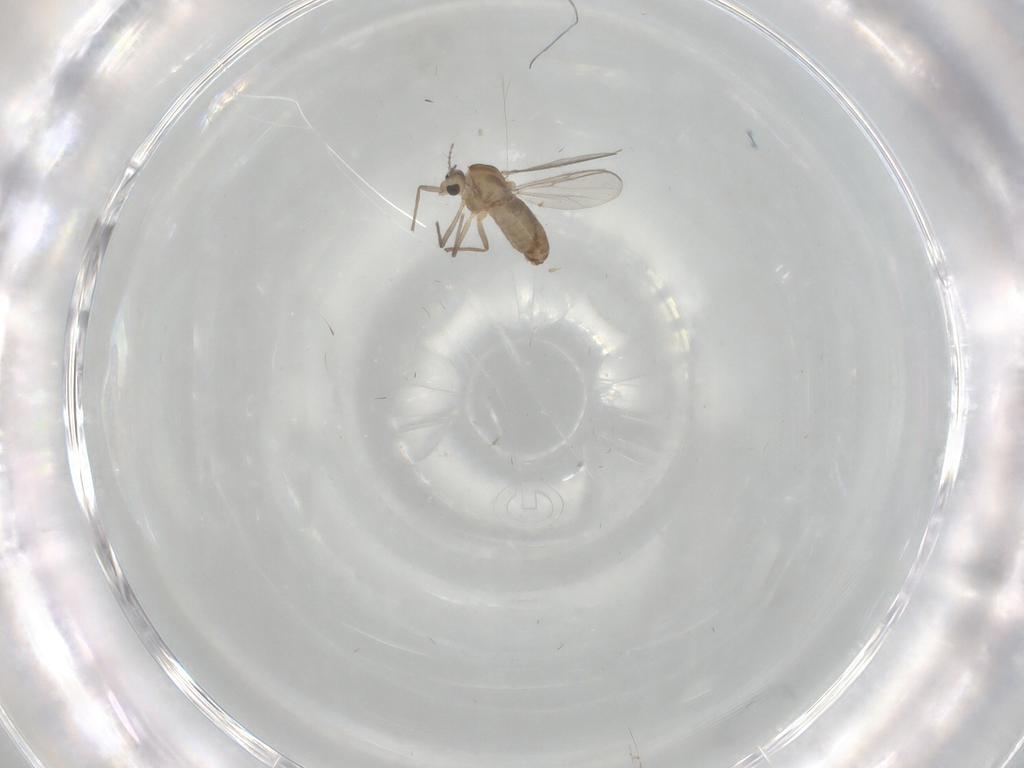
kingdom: Animalia
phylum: Arthropoda
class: Insecta
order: Diptera
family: Chironomidae
